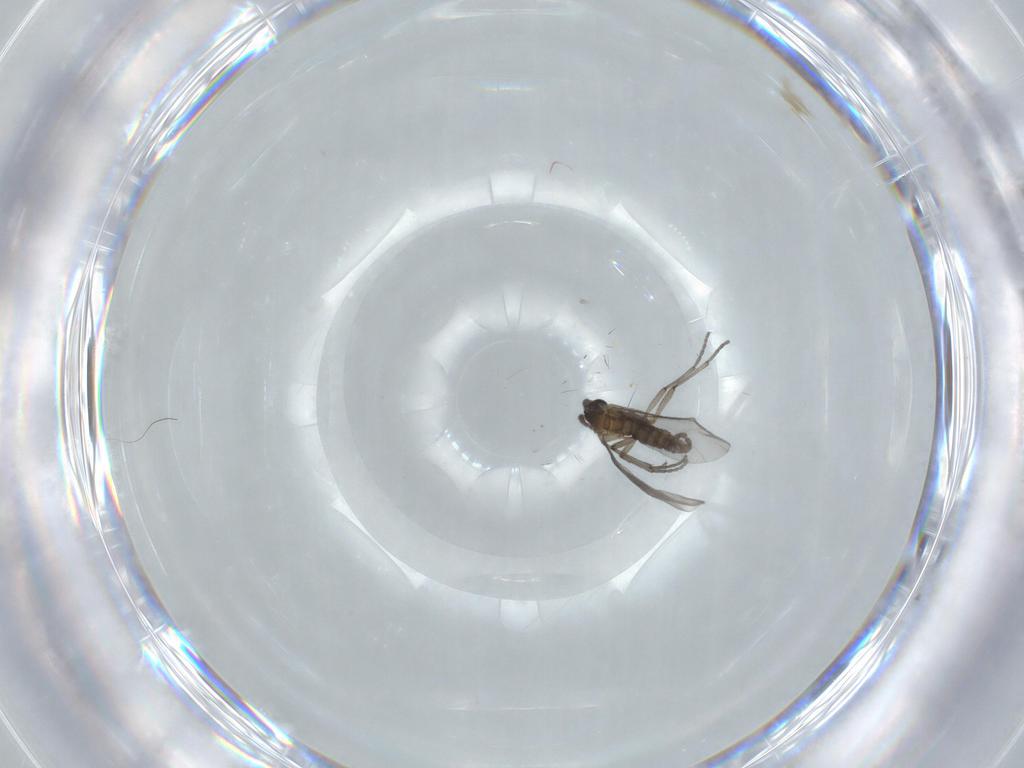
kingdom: Animalia
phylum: Arthropoda
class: Insecta
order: Diptera
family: Sciaridae
